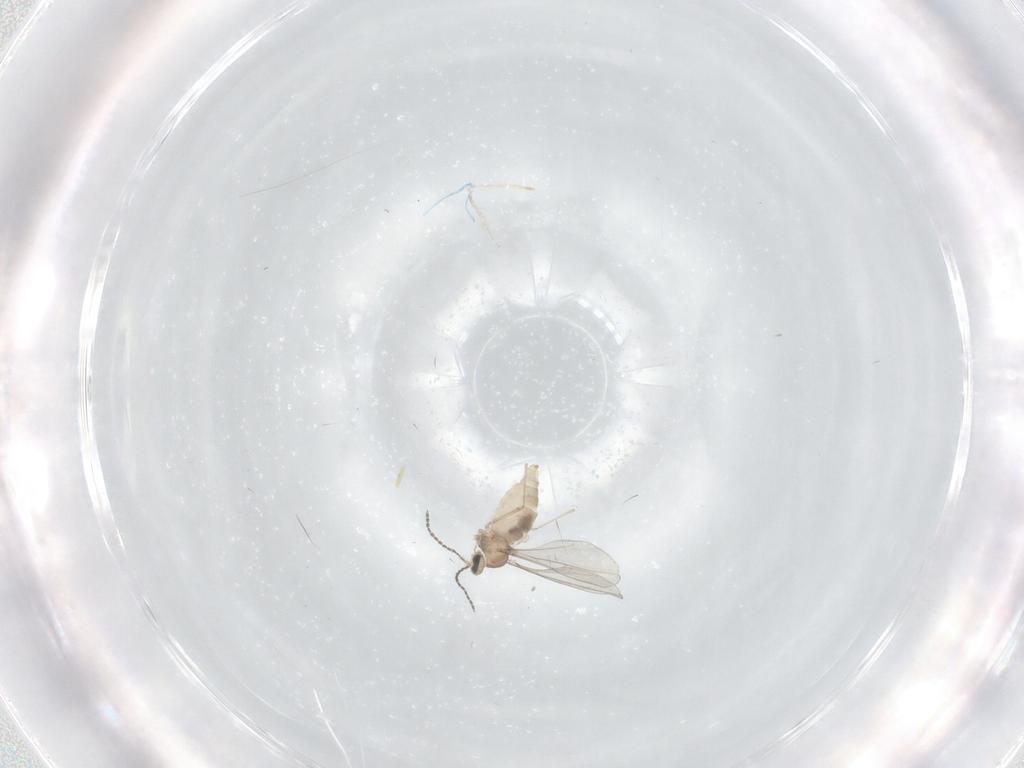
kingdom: Animalia
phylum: Arthropoda
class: Insecta
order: Diptera
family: Cecidomyiidae
